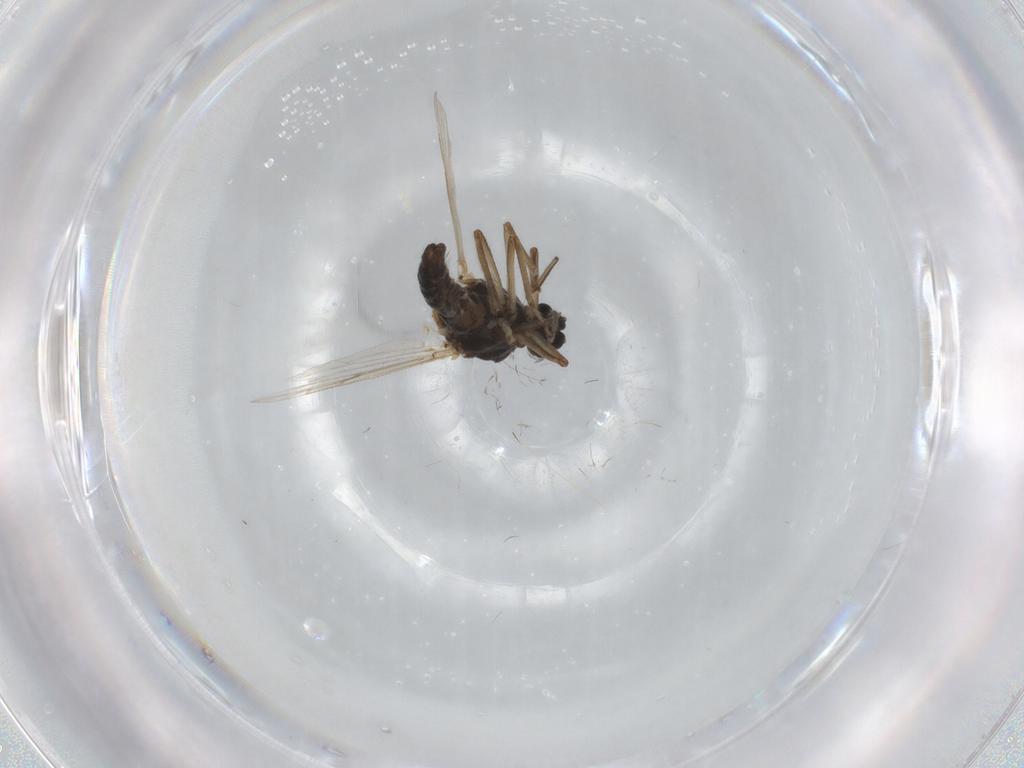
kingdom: Animalia
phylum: Arthropoda
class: Insecta
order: Diptera
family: Ceratopogonidae
